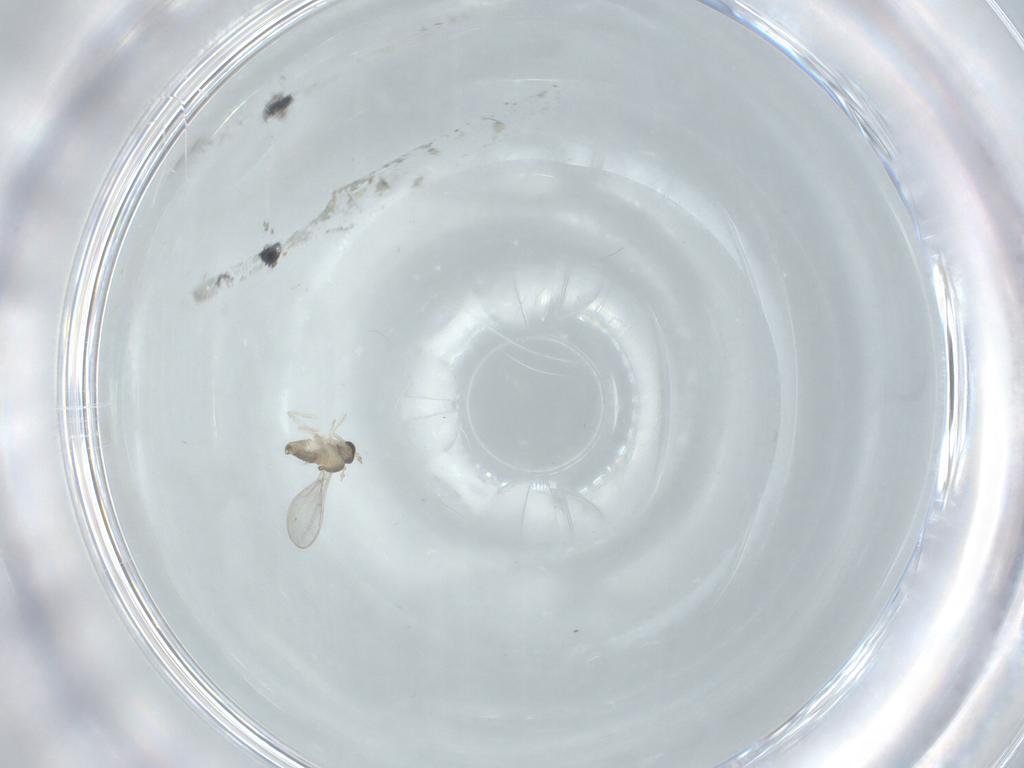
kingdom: Animalia
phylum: Arthropoda
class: Insecta
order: Diptera
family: Cecidomyiidae
